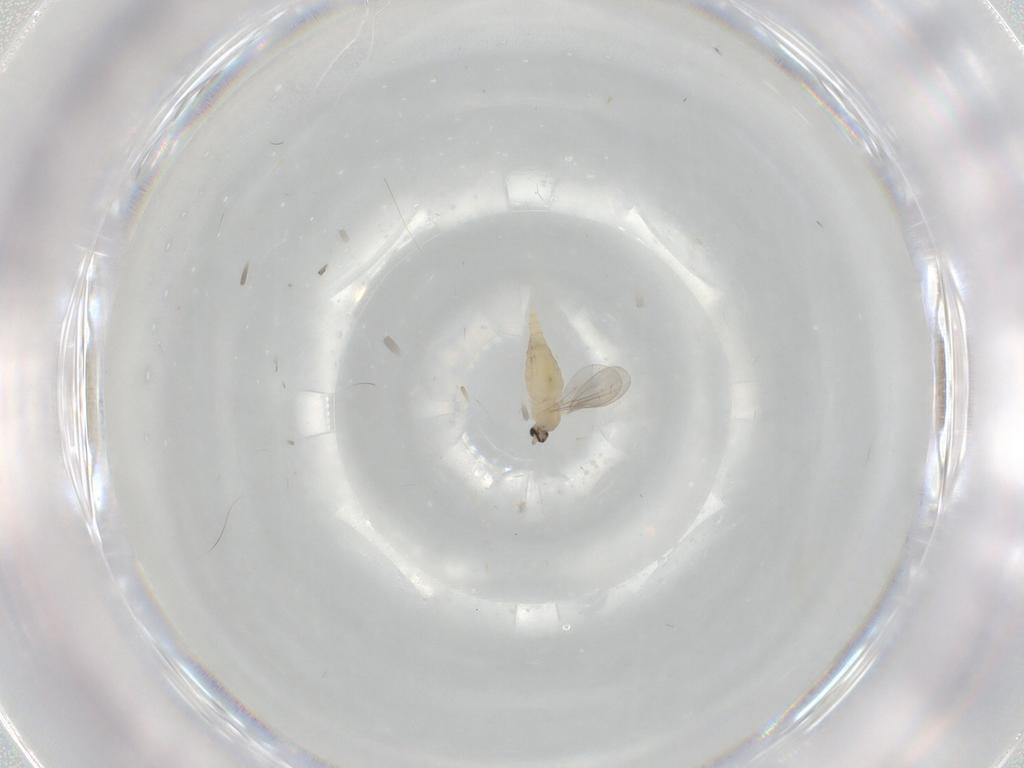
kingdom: Animalia
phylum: Arthropoda
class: Insecta
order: Diptera
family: Cecidomyiidae
